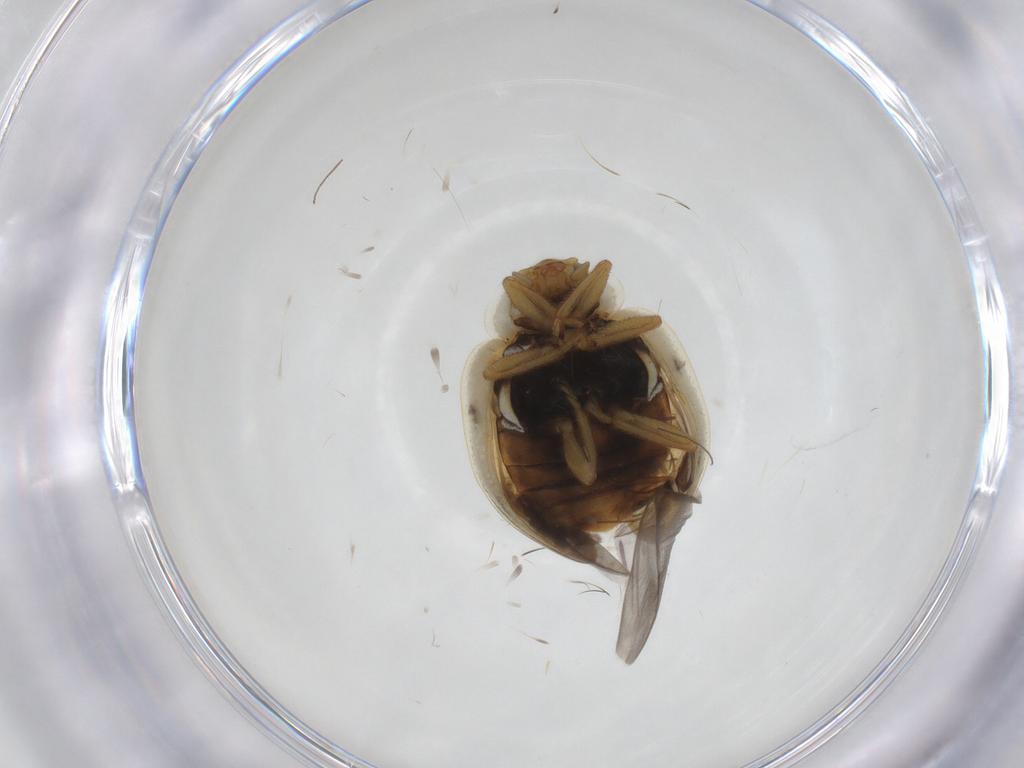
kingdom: Animalia
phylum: Arthropoda
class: Insecta
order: Coleoptera
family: Coccinellidae
